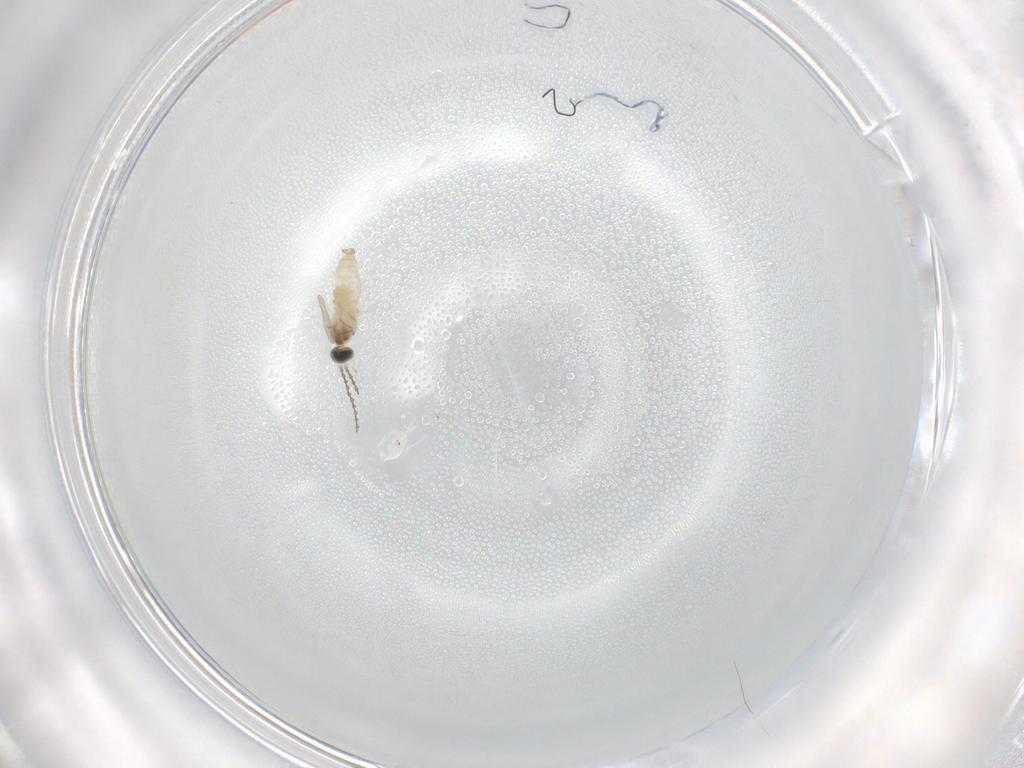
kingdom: Animalia
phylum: Arthropoda
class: Insecta
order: Diptera
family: Cecidomyiidae
